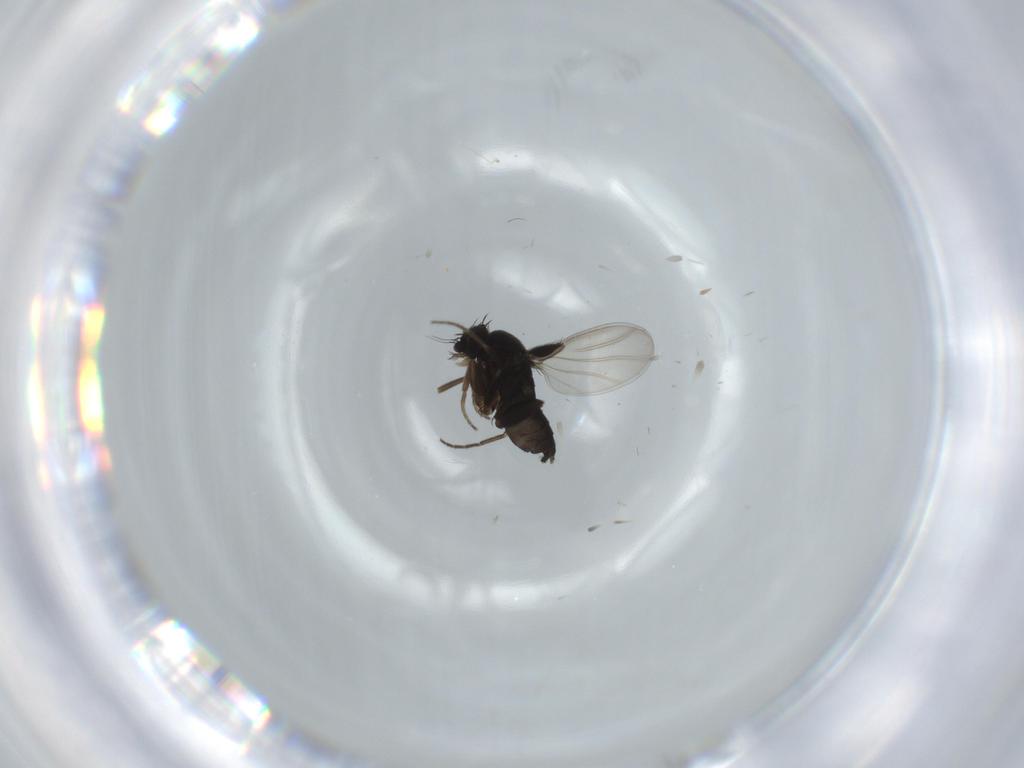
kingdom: Animalia
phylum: Arthropoda
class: Insecta
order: Diptera
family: Phoridae
